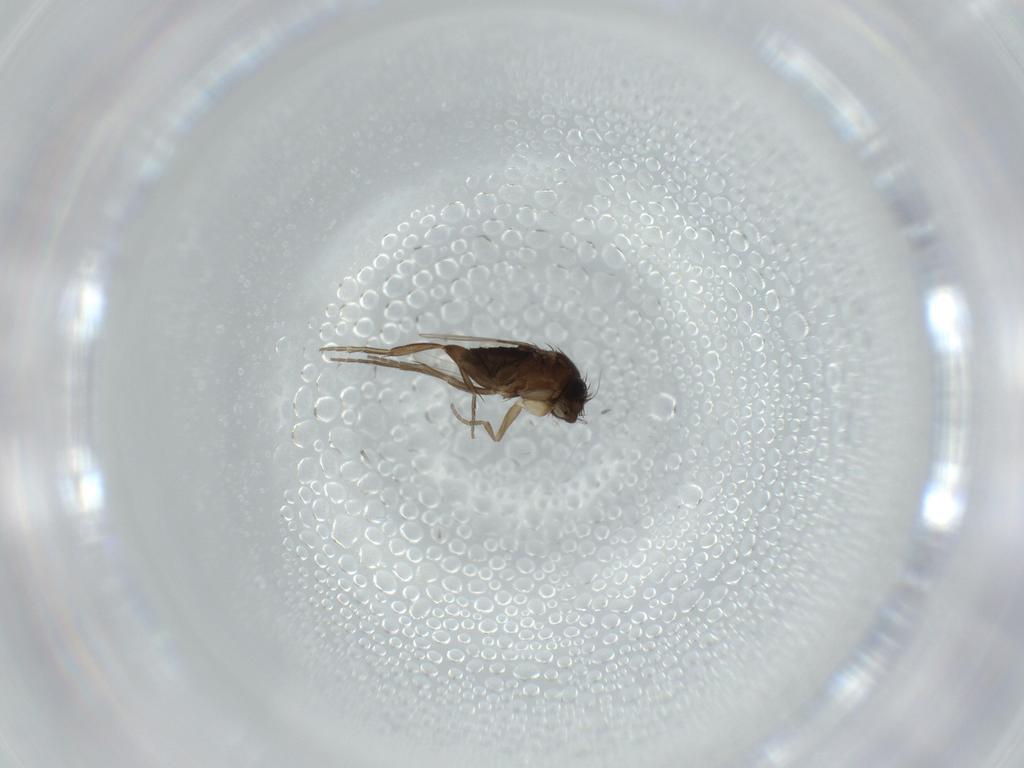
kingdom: Animalia
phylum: Arthropoda
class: Insecta
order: Diptera
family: Phoridae
